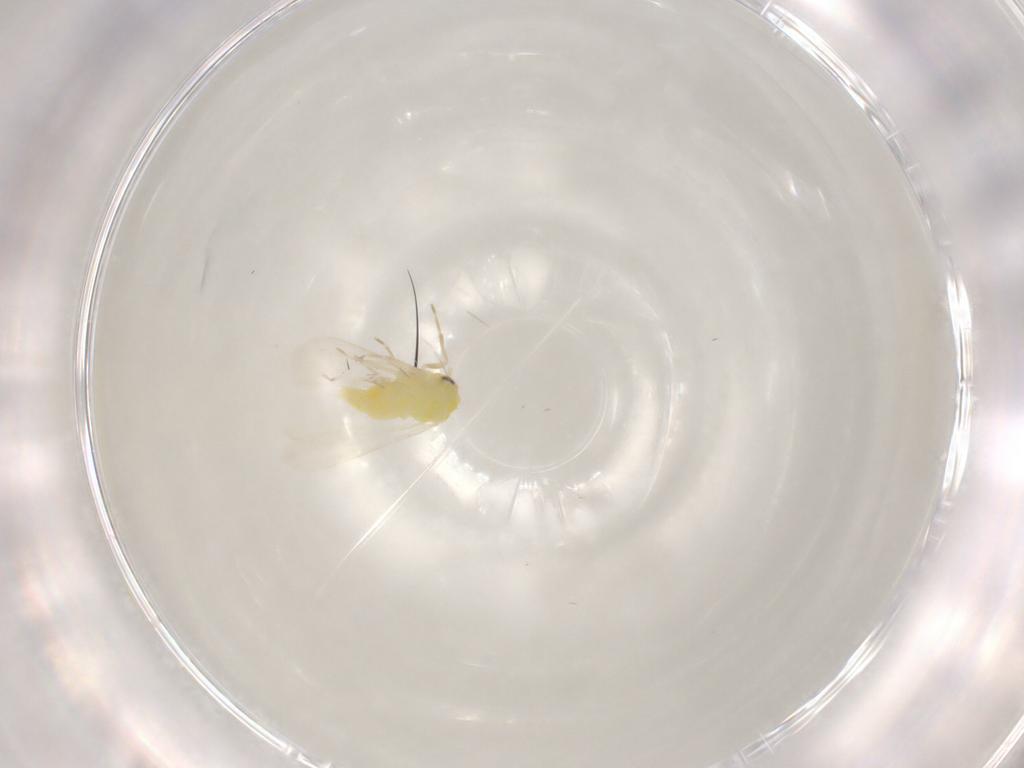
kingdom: Animalia
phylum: Arthropoda
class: Insecta
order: Hemiptera
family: Aleyrodidae
